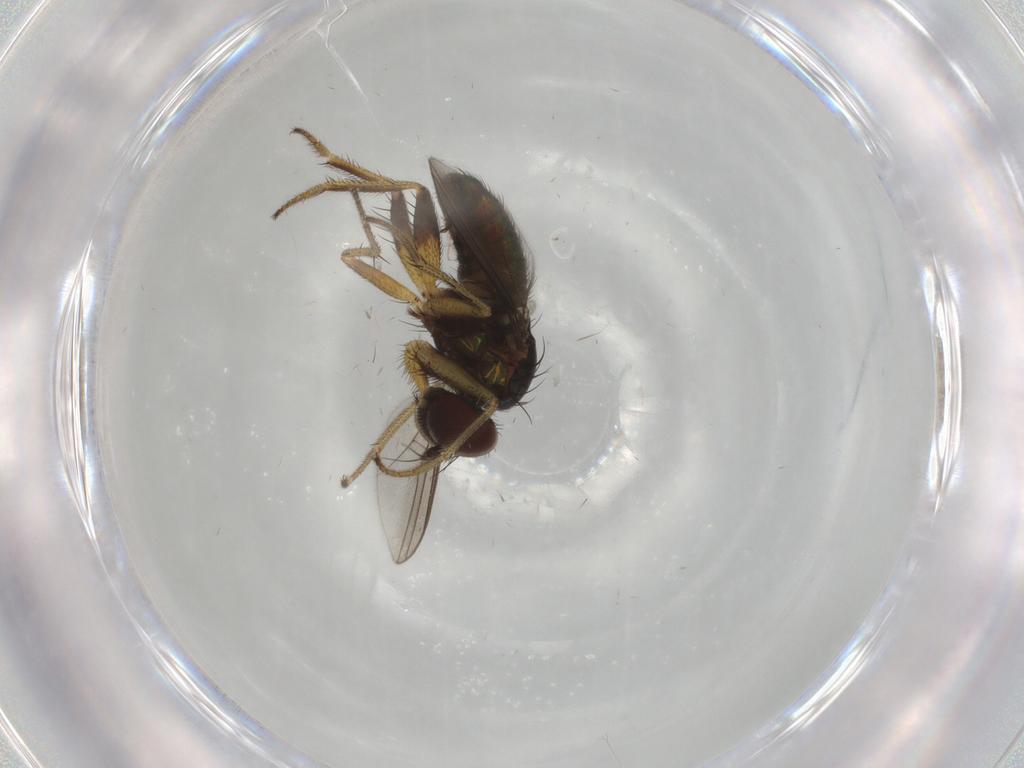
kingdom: Animalia
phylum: Arthropoda
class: Insecta
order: Diptera
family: Dolichopodidae
